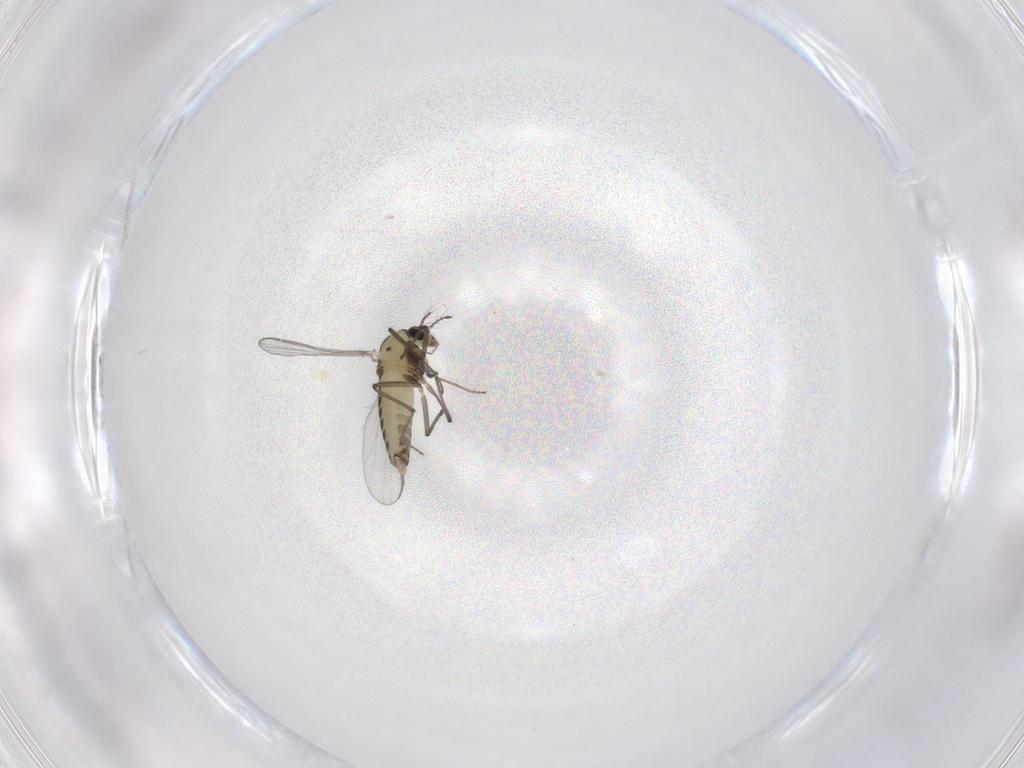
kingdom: Animalia
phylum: Arthropoda
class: Insecta
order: Diptera
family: Chironomidae
